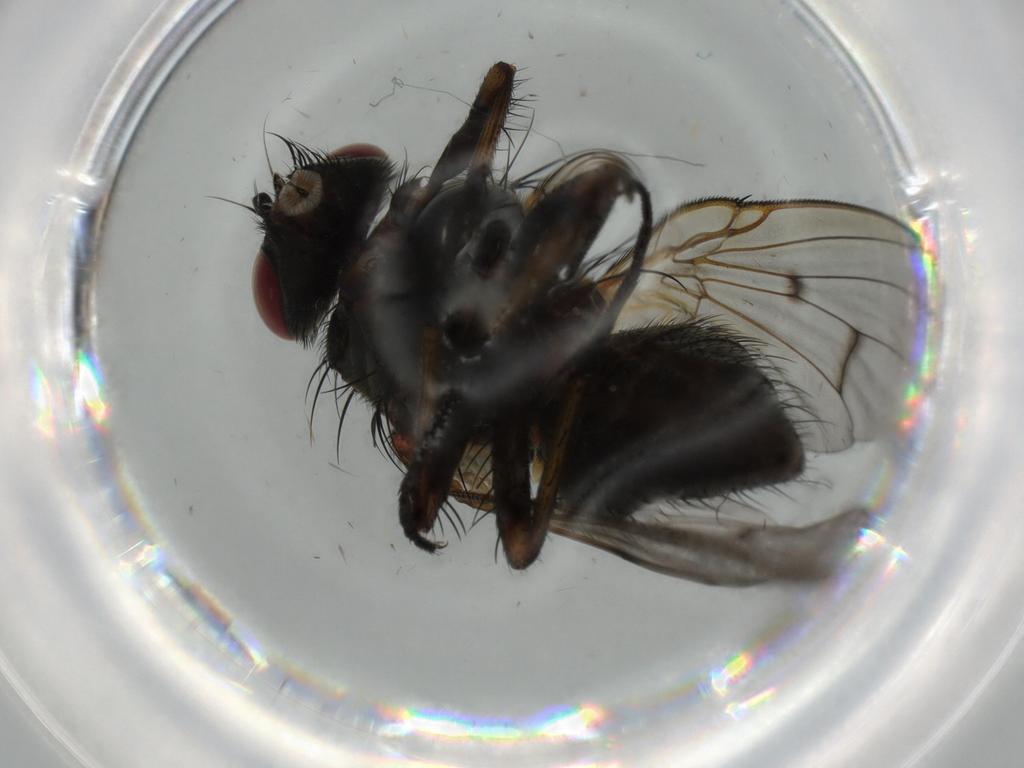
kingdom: Animalia
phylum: Arthropoda
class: Insecta
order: Diptera
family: Muscidae
